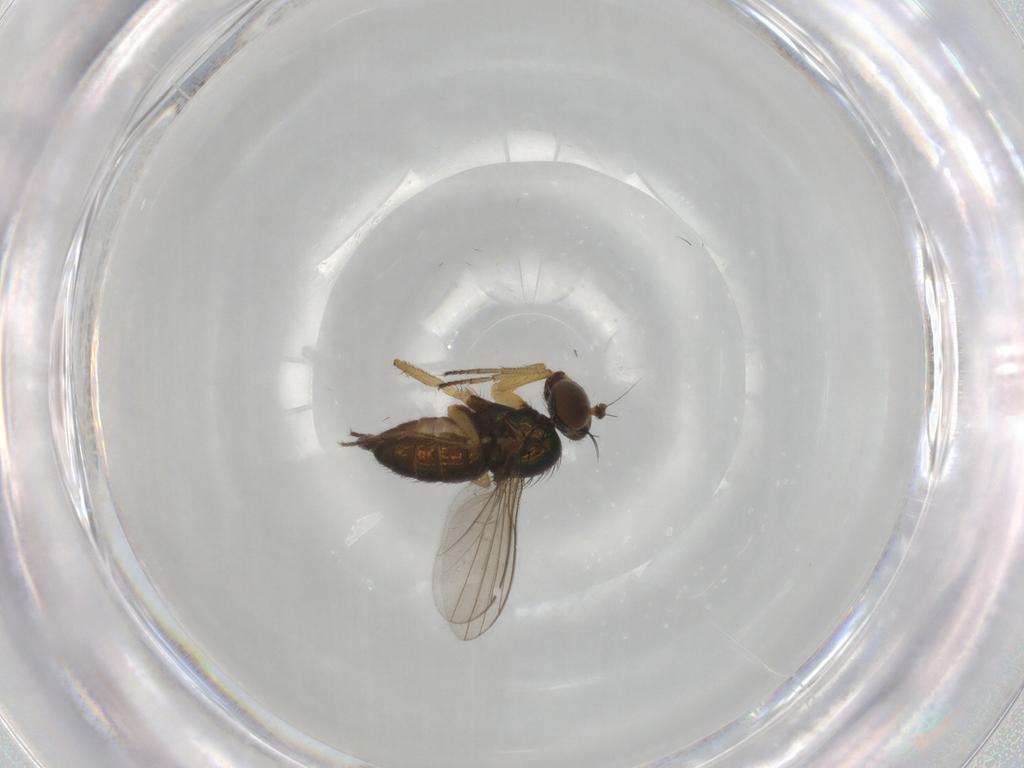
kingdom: Animalia
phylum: Arthropoda
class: Insecta
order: Diptera
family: Dolichopodidae
